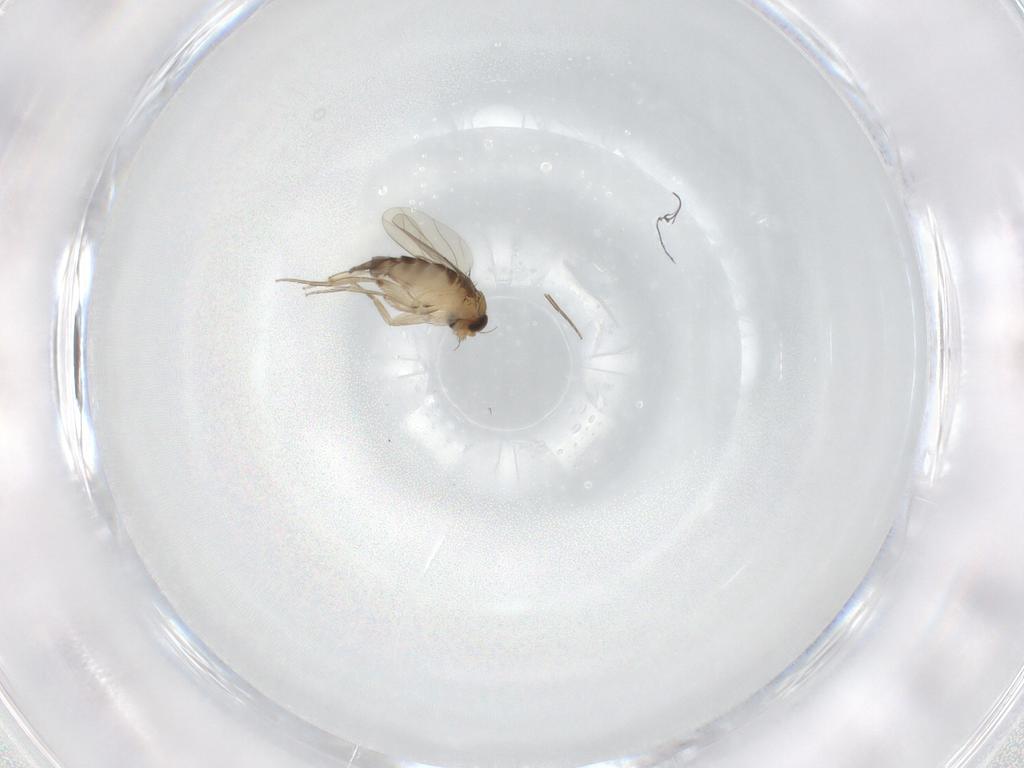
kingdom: Animalia
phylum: Arthropoda
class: Insecta
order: Diptera
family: Phoridae
